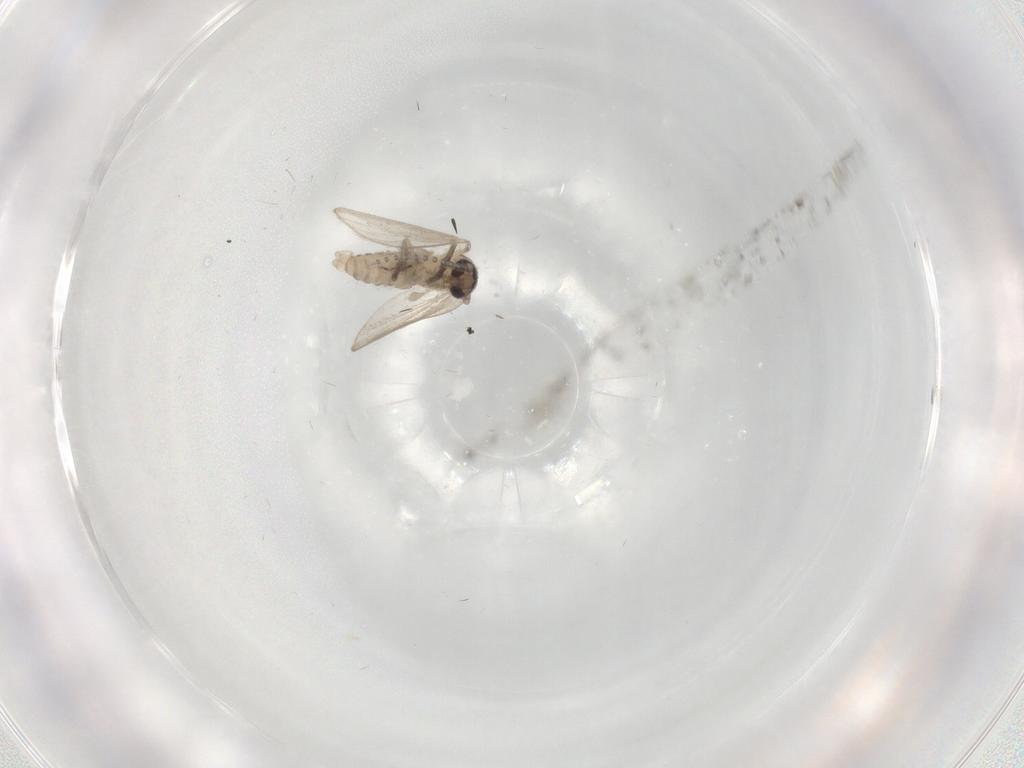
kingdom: Animalia
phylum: Arthropoda
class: Insecta
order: Diptera
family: Psychodidae
